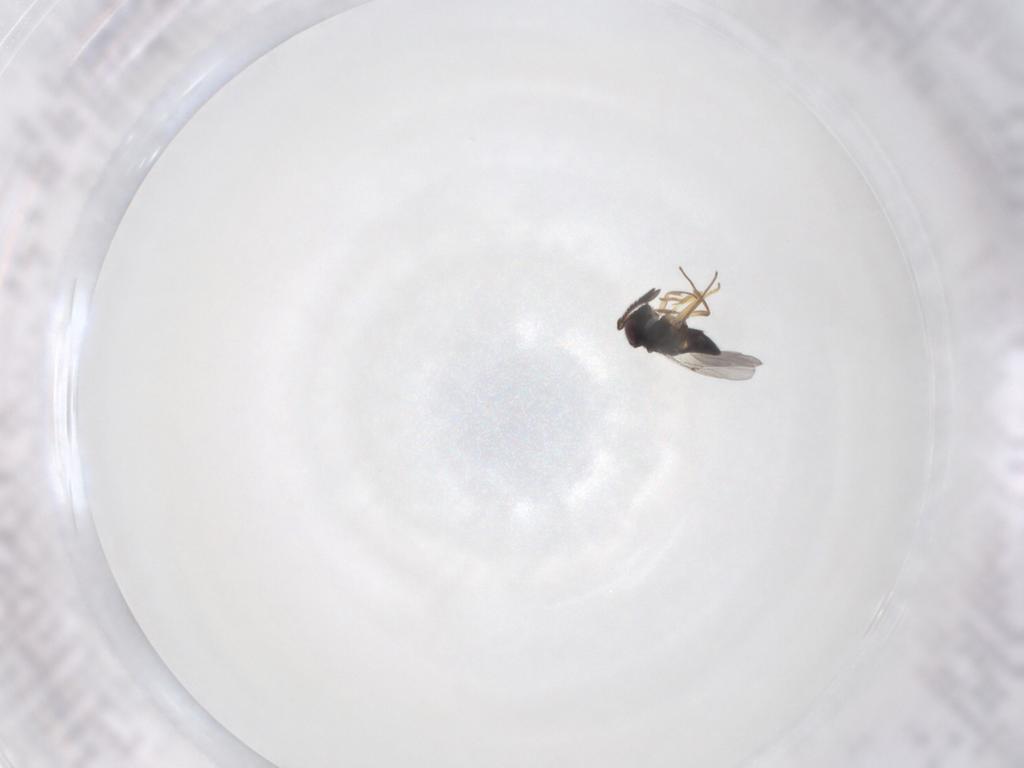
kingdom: Animalia
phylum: Arthropoda
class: Insecta
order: Hymenoptera
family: Platygastridae
